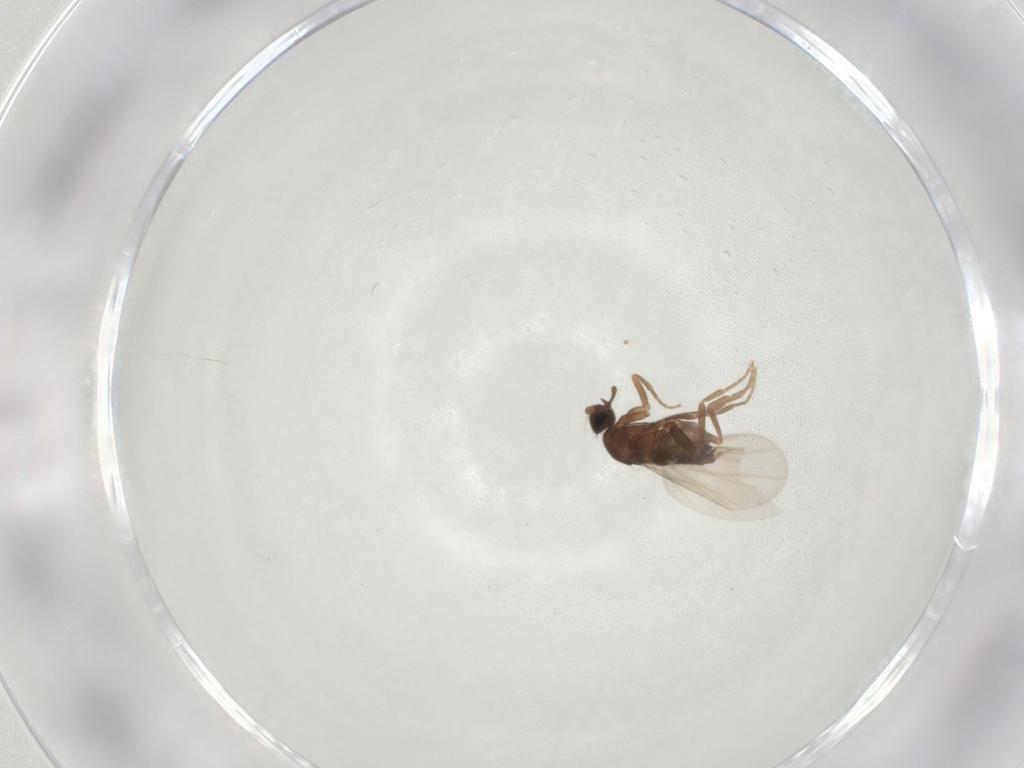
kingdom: Animalia
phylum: Arthropoda
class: Insecta
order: Diptera
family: Phoridae
